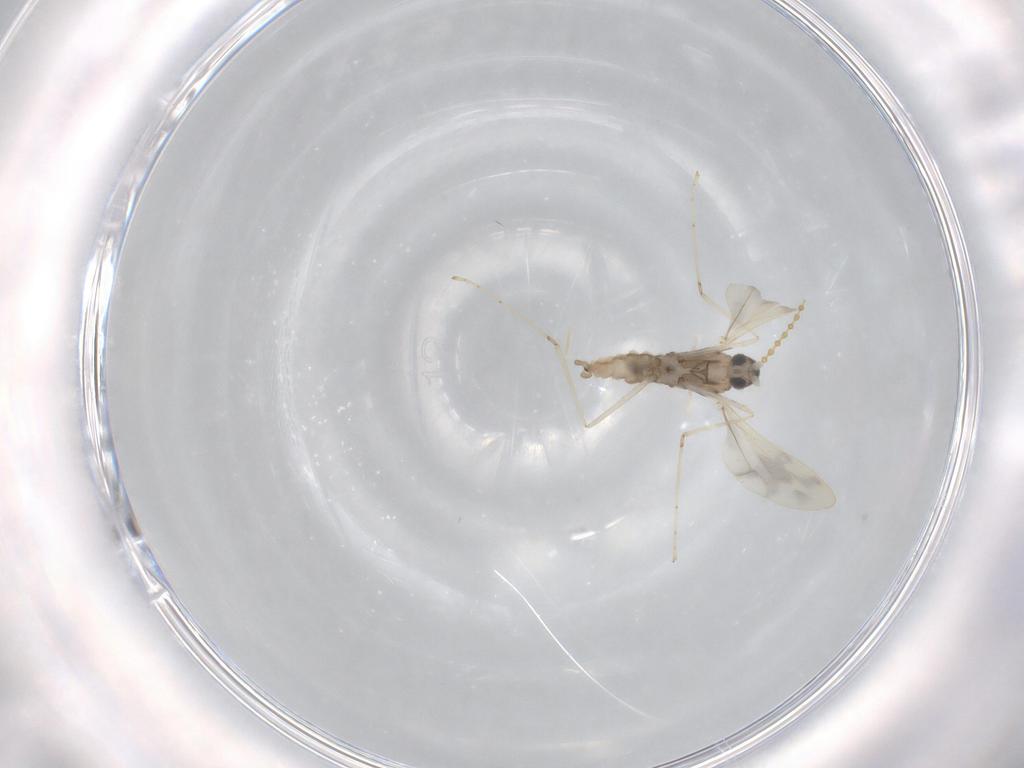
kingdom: Animalia
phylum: Arthropoda
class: Insecta
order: Diptera
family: Cecidomyiidae
